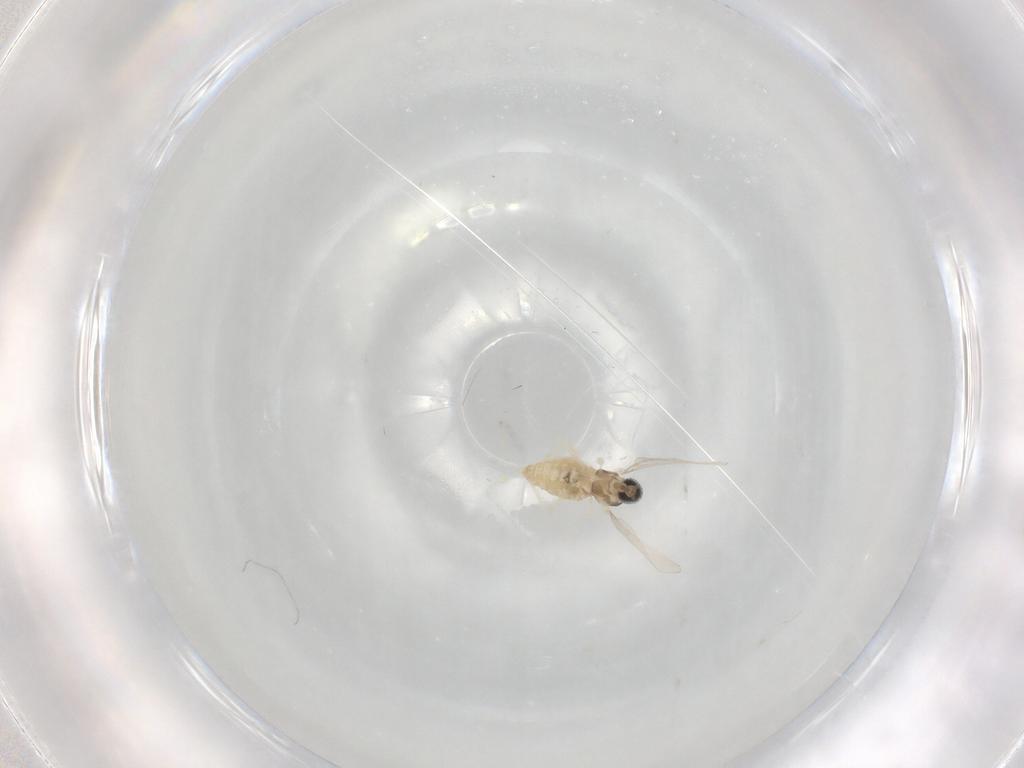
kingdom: Animalia
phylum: Arthropoda
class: Insecta
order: Diptera
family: Cecidomyiidae
